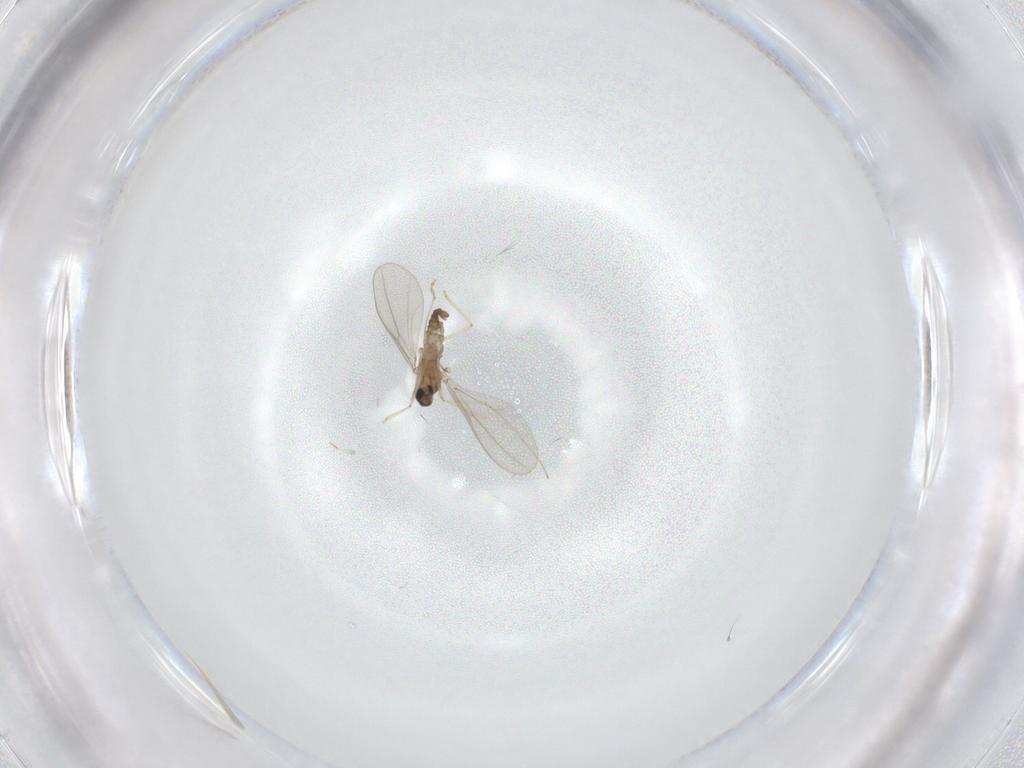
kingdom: Animalia
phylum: Arthropoda
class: Insecta
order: Diptera
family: Cecidomyiidae
